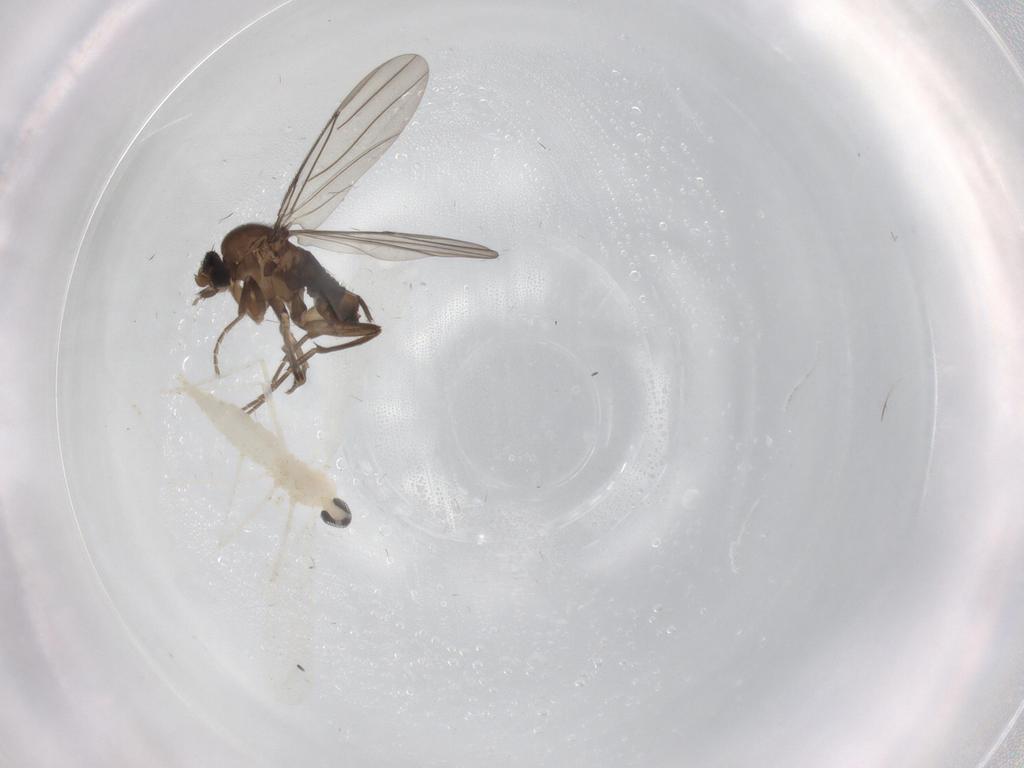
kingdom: Animalia
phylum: Arthropoda
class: Insecta
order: Diptera
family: Cecidomyiidae
